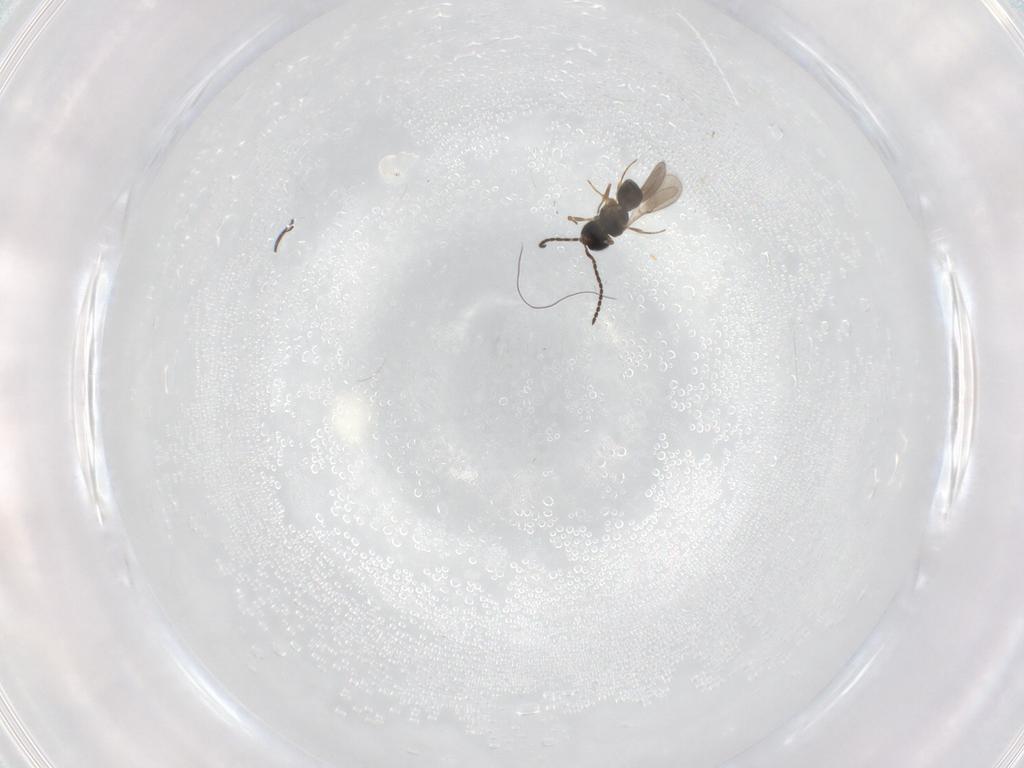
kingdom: Animalia
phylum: Arthropoda
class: Insecta
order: Hymenoptera
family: Scelionidae
